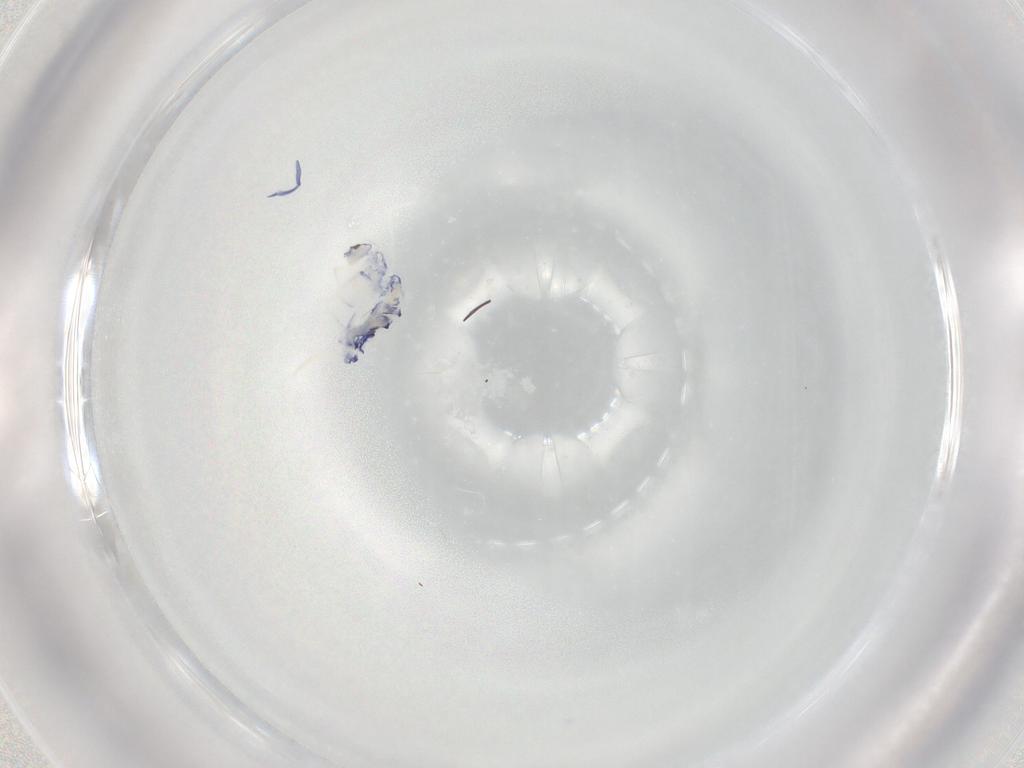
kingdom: Animalia
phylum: Arthropoda
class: Collembola
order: Entomobryomorpha
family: Entomobryidae
